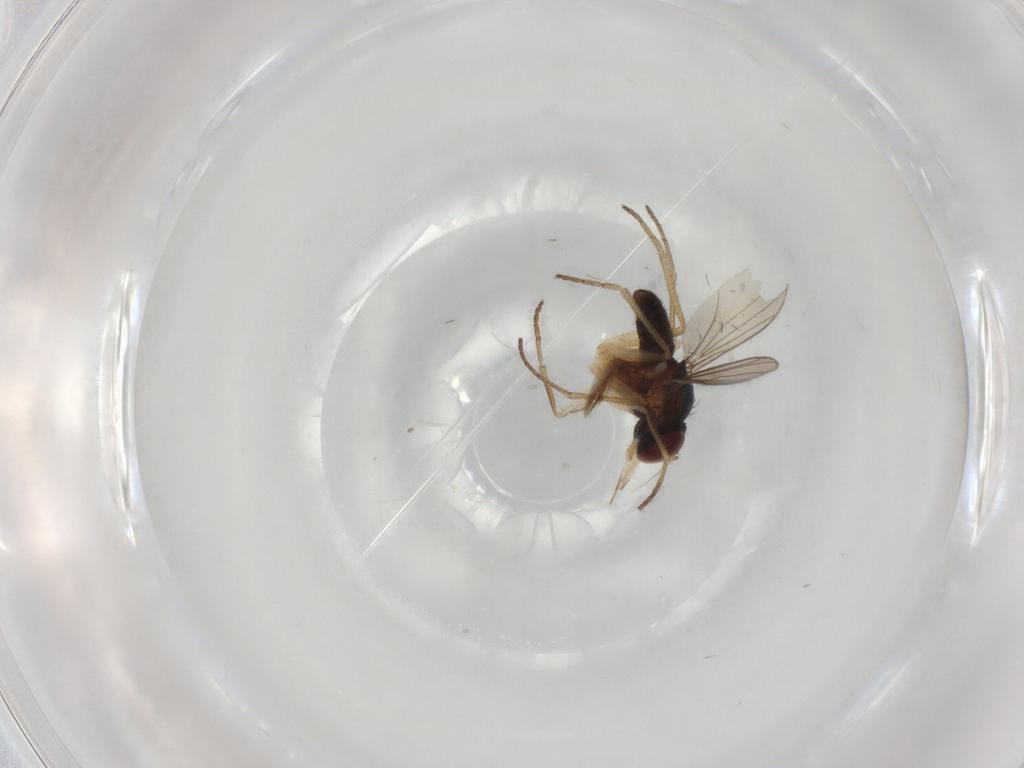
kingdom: Animalia
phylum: Arthropoda
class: Insecta
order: Diptera
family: Dolichopodidae
